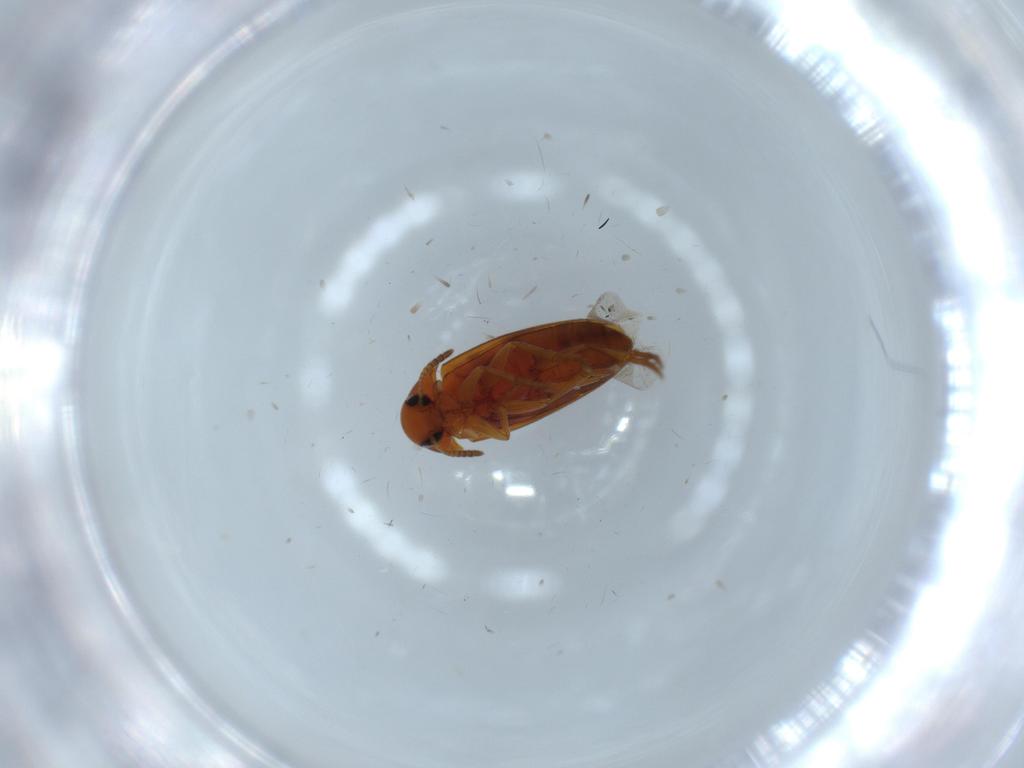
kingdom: Animalia
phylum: Arthropoda
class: Insecta
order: Coleoptera
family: Scraptiidae
